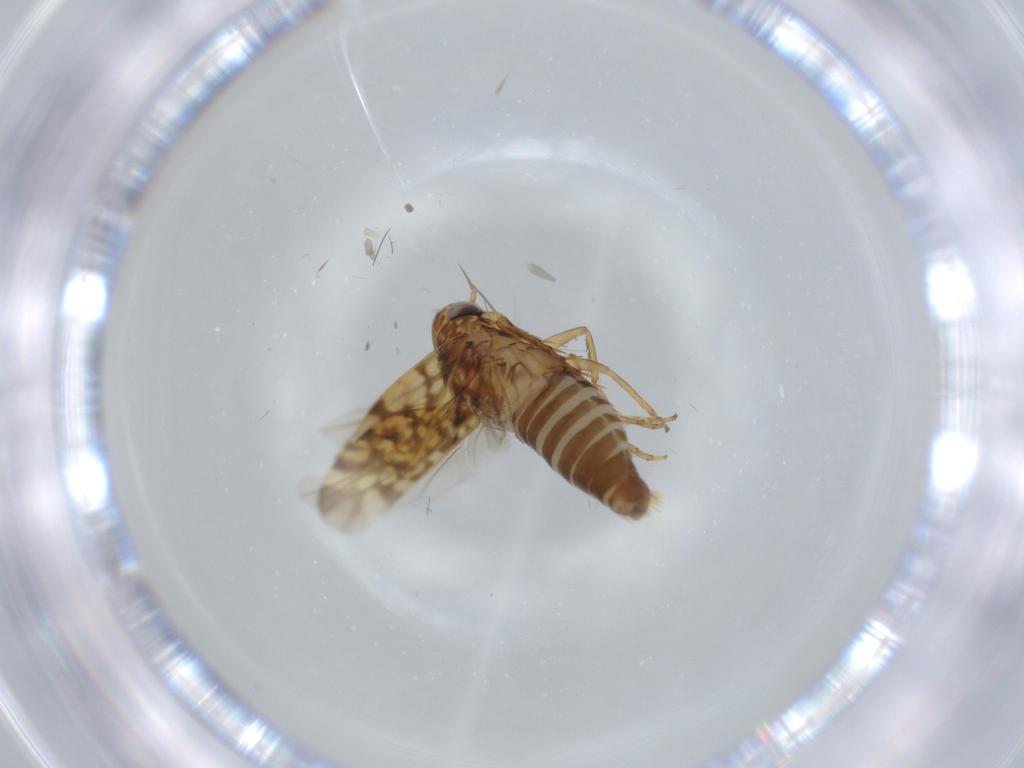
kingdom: Animalia
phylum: Arthropoda
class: Insecta
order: Hemiptera
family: Cicadellidae
